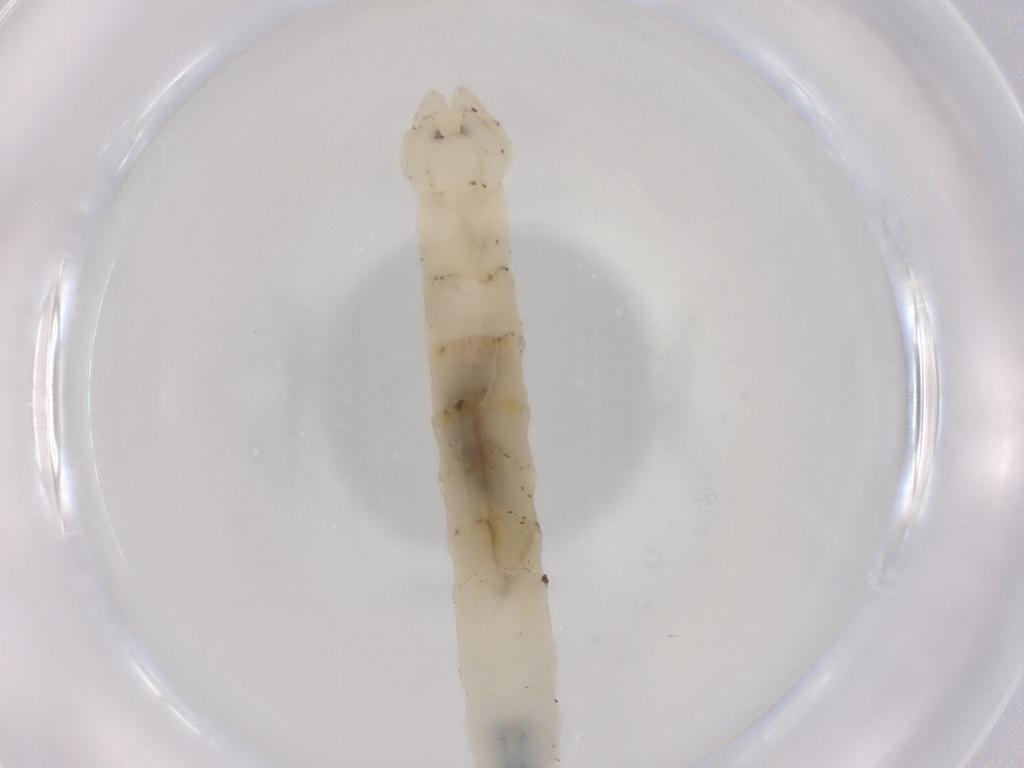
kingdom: Animalia
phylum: Arthropoda
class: Insecta
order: Diptera
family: Dolichopodidae
